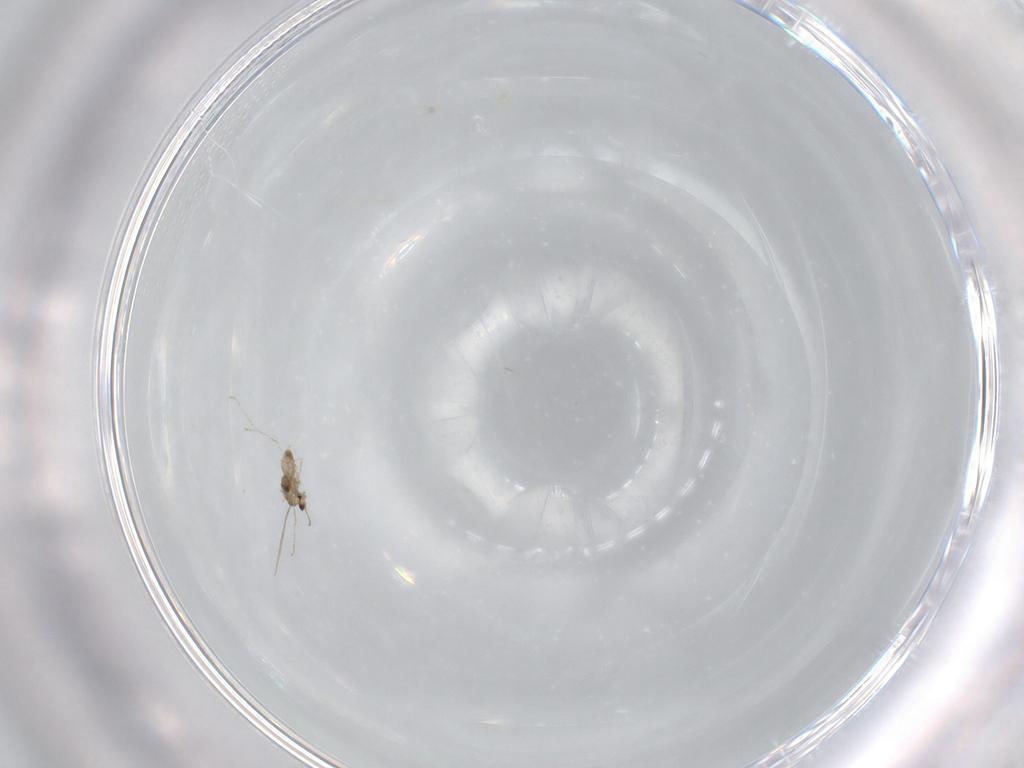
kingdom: Animalia
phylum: Arthropoda
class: Insecta
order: Diptera
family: Cecidomyiidae
